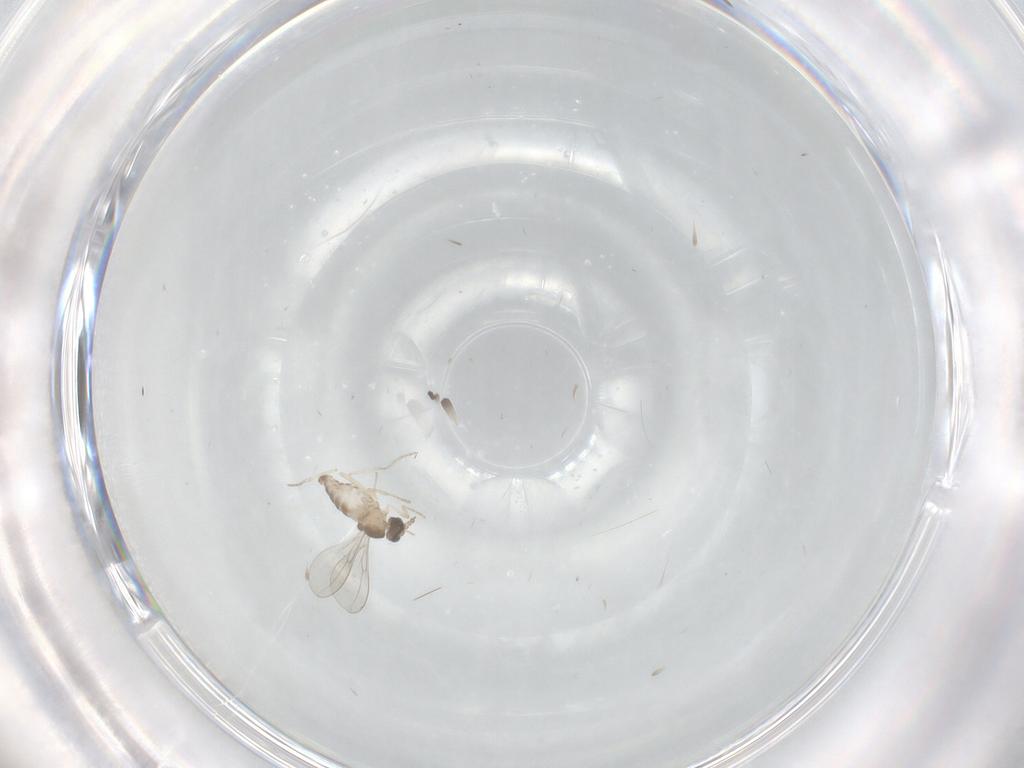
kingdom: Animalia
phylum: Arthropoda
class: Insecta
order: Diptera
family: Cecidomyiidae
